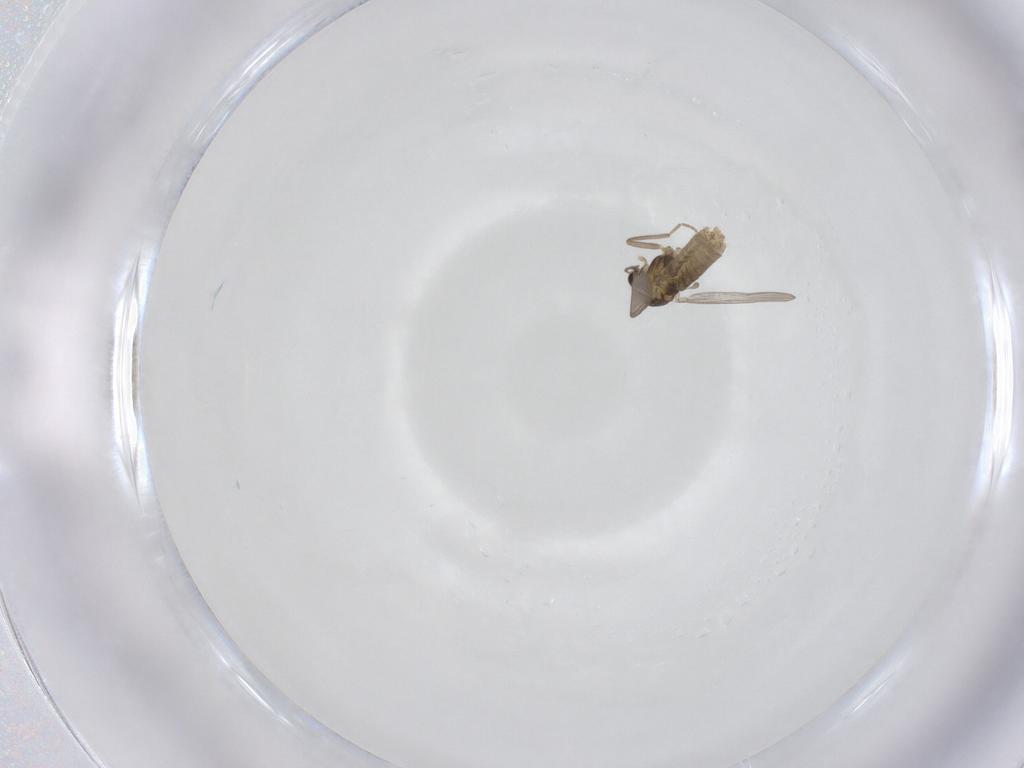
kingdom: Animalia
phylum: Arthropoda
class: Insecta
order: Diptera
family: Chironomidae
